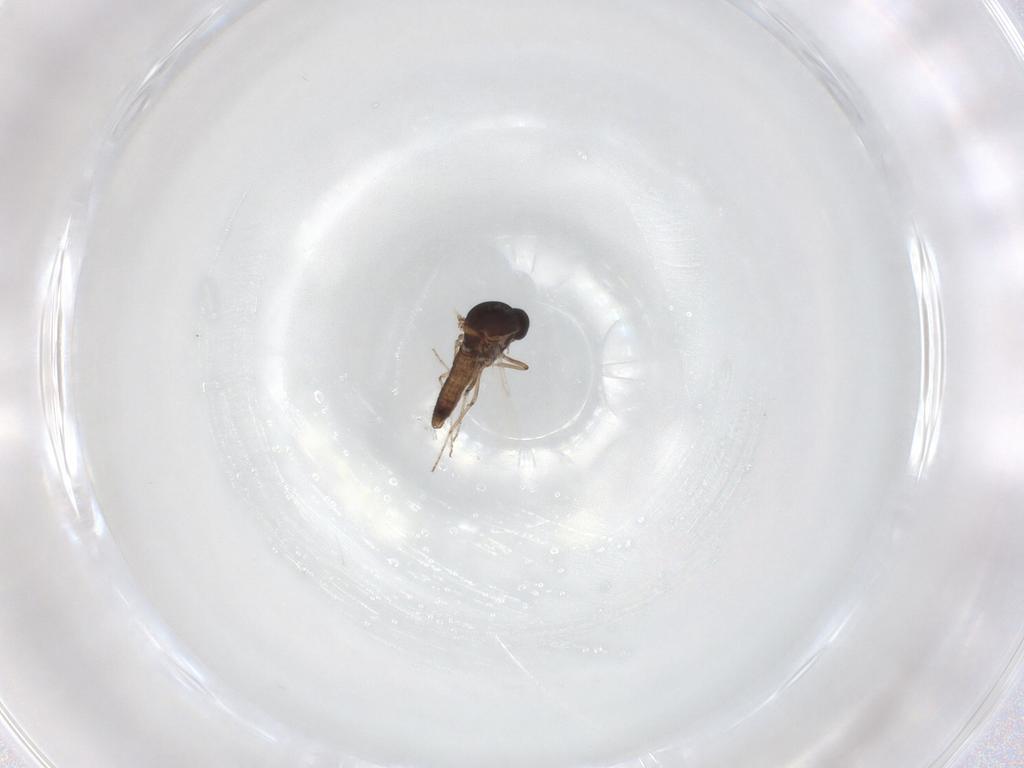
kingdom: Animalia
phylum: Arthropoda
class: Insecta
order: Diptera
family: Ceratopogonidae
